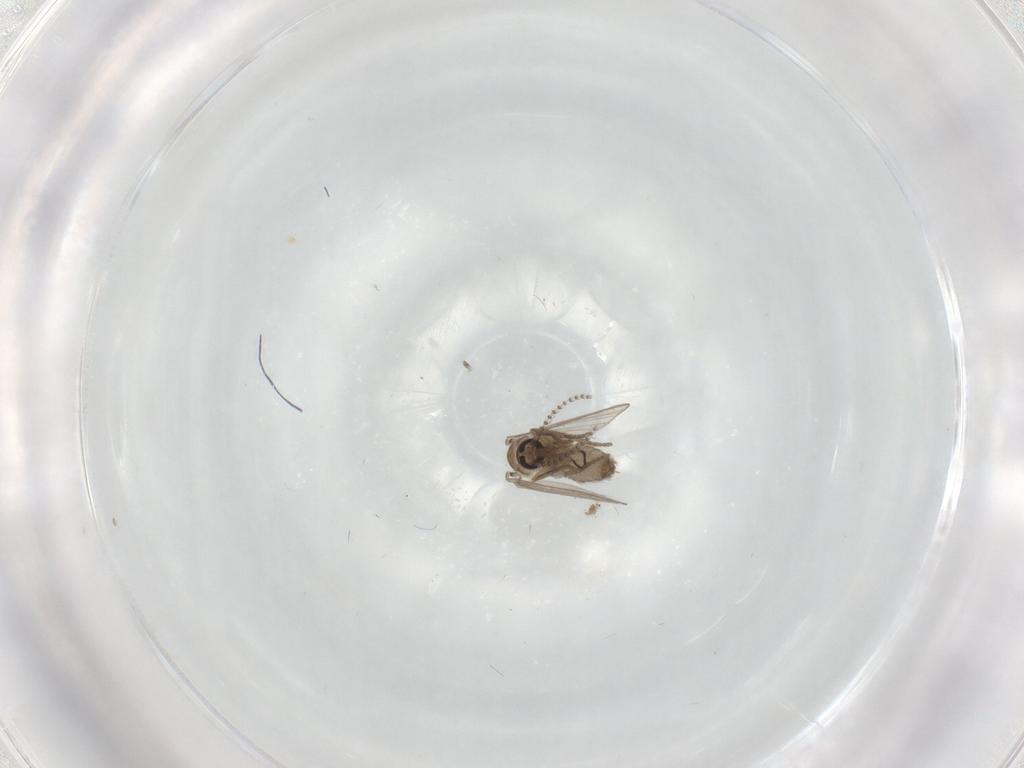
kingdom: Animalia
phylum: Arthropoda
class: Insecta
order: Diptera
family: Psychodidae
